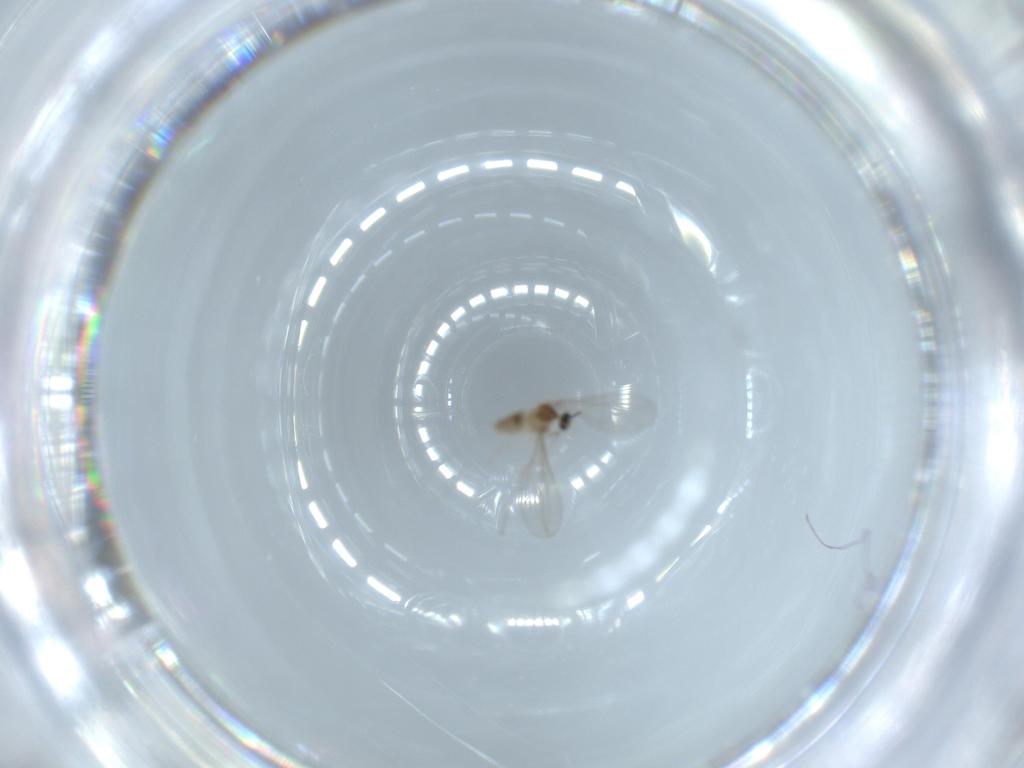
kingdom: Animalia
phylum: Arthropoda
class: Insecta
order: Diptera
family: Cecidomyiidae
